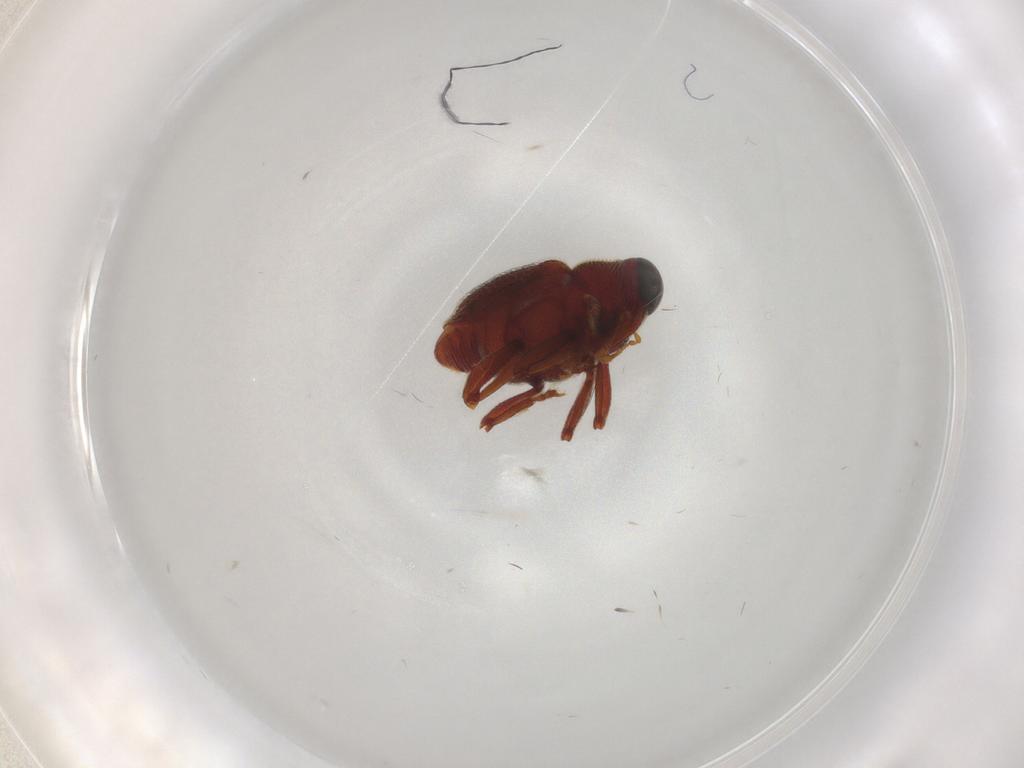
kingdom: Animalia
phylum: Arthropoda
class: Insecta
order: Coleoptera
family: Curculionidae
